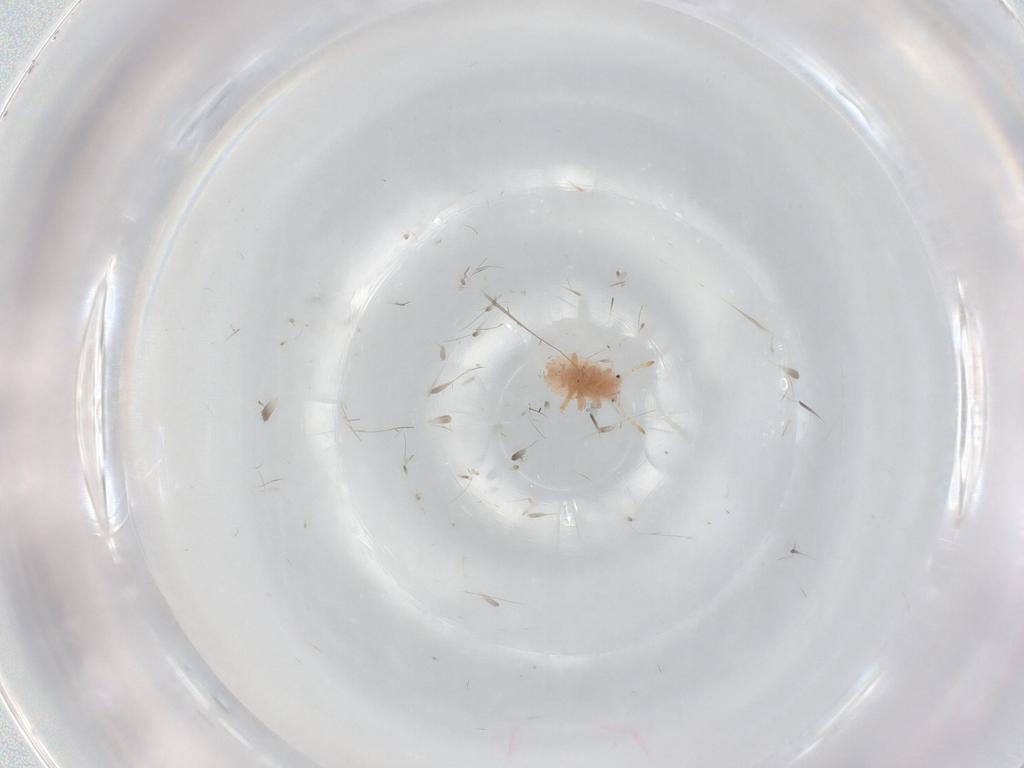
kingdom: Animalia
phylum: Arthropoda
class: Insecta
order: Hemiptera
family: Coccoidea_incertae_sedis
